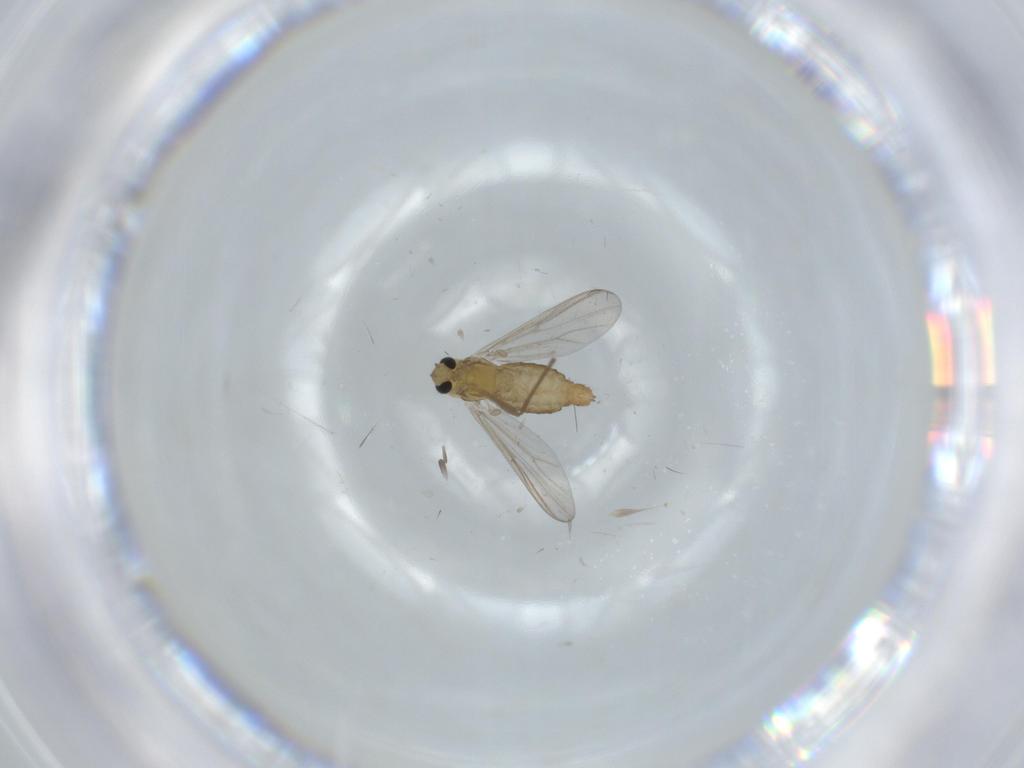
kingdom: Animalia
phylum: Arthropoda
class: Insecta
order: Diptera
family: Chironomidae
